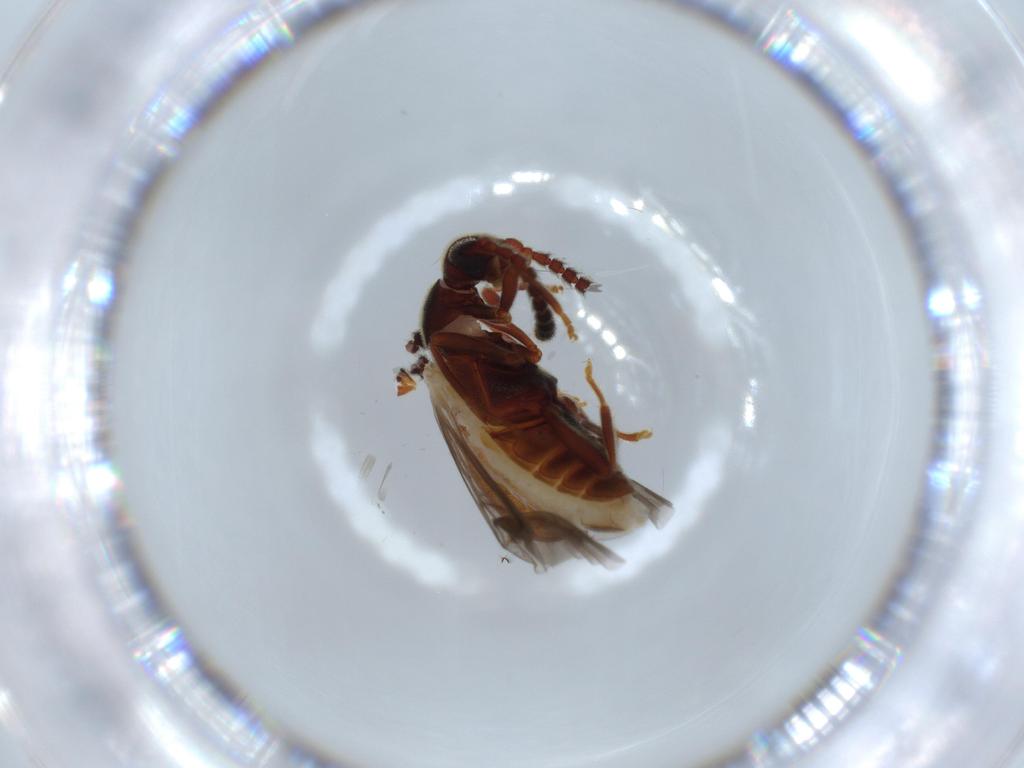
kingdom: Animalia
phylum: Arthropoda
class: Insecta
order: Coleoptera
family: Aderidae
